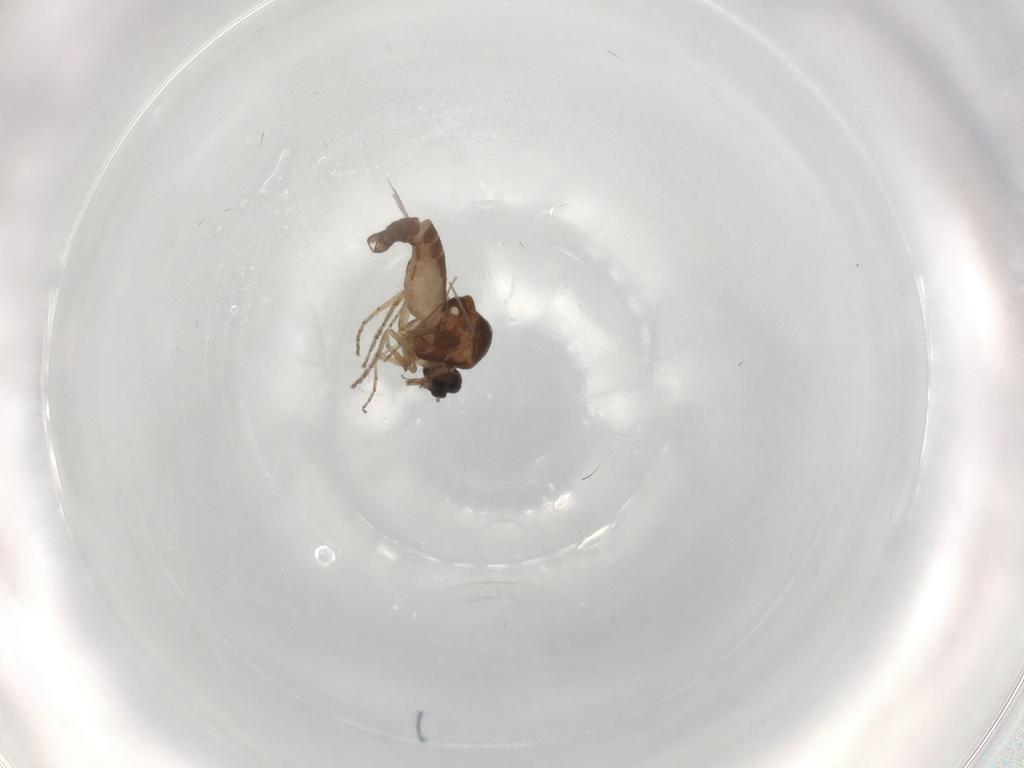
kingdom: Animalia
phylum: Arthropoda
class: Insecta
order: Diptera
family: Ceratopogonidae
